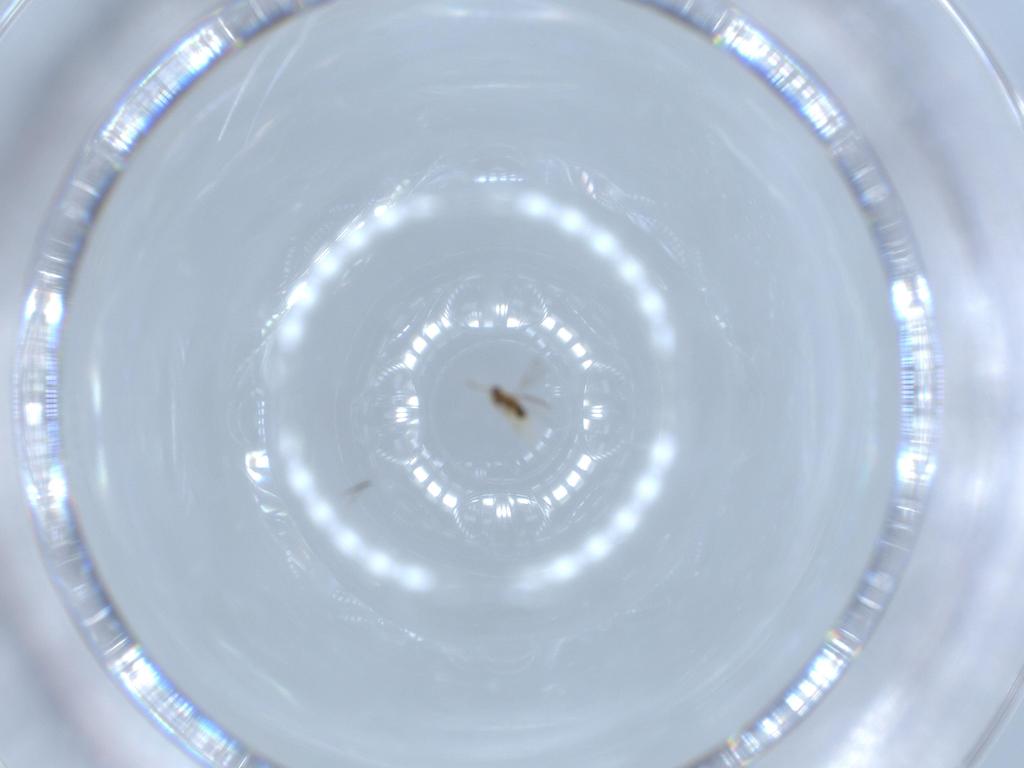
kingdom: Animalia
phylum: Arthropoda
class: Insecta
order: Hymenoptera
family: Aphelinidae
